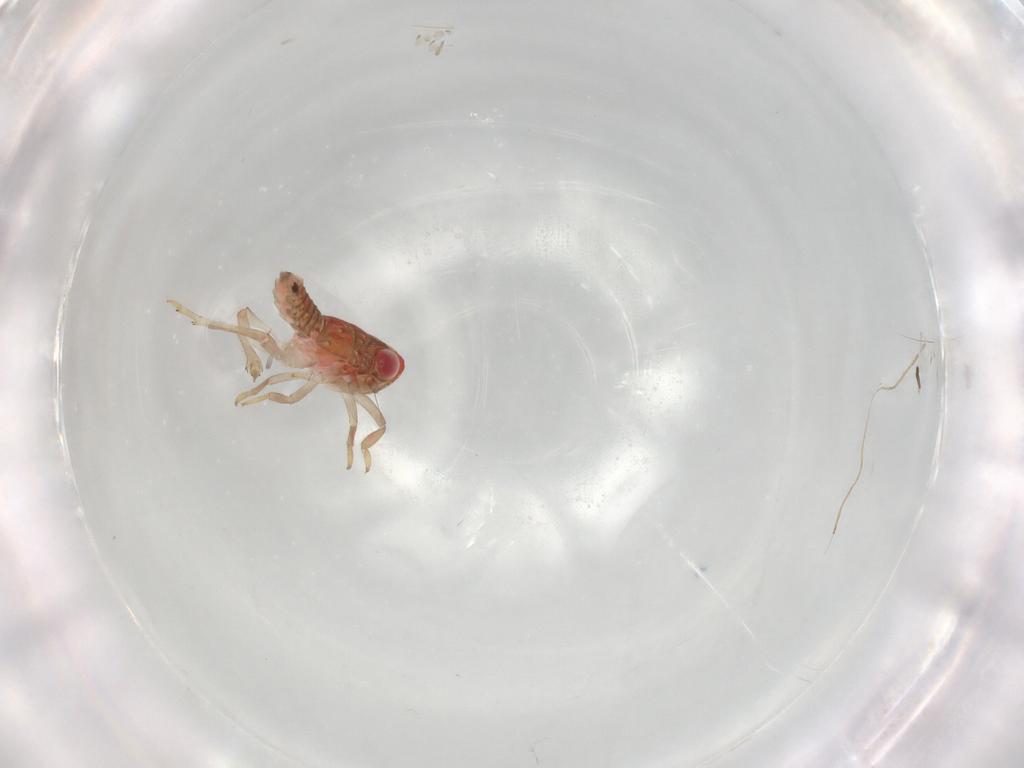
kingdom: Animalia
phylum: Arthropoda
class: Insecta
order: Hemiptera
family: Issidae
